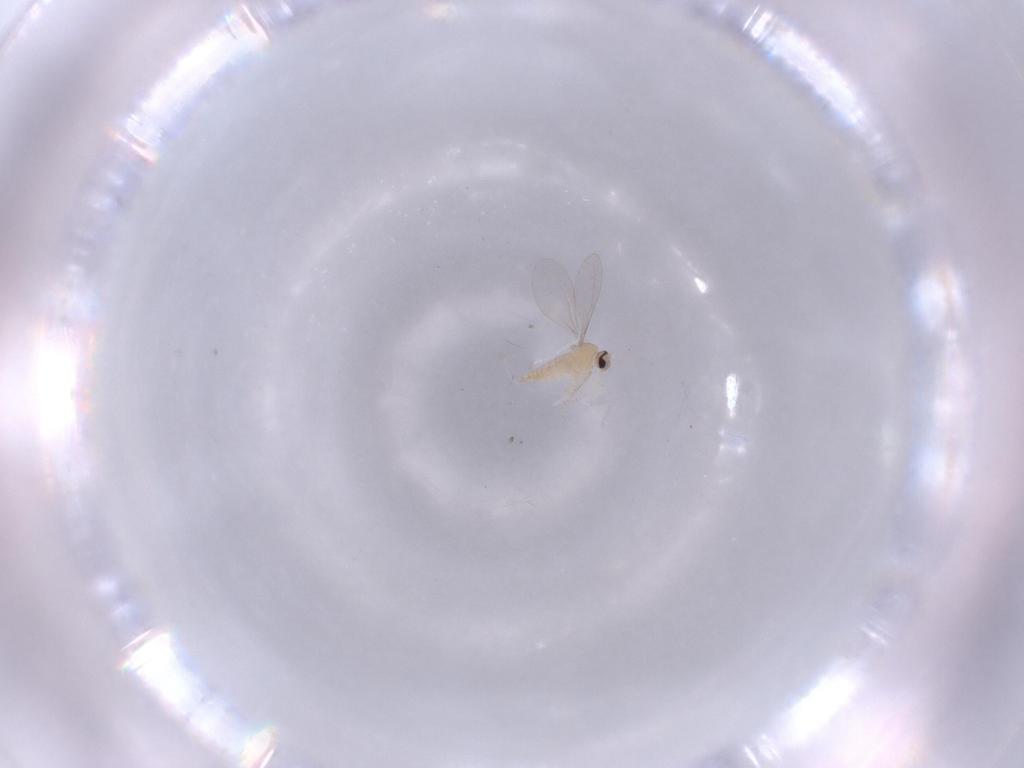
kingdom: Animalia
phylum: Arthropoda
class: Insecta
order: Diptera
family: Cecidomyiidae
